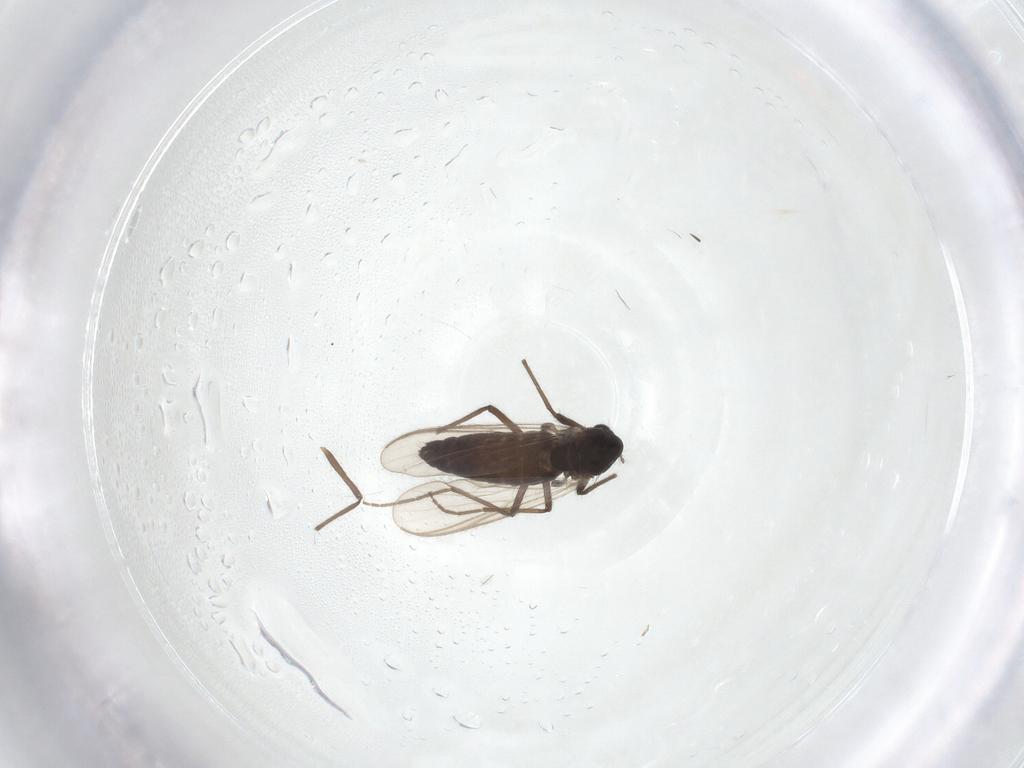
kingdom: Animalia
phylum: Arthropoda
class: Insecta
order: Diptera
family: Chironomidae
